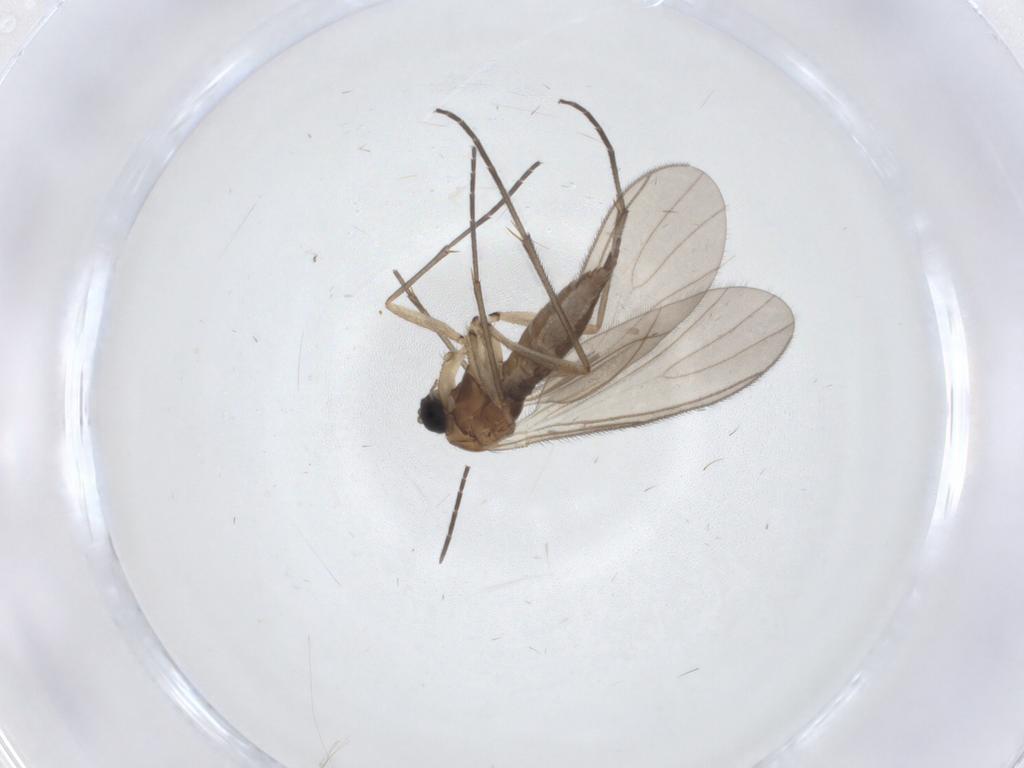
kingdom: Animalia
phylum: Arthropoda
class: Insecta
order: Diptera
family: Sciaridae
